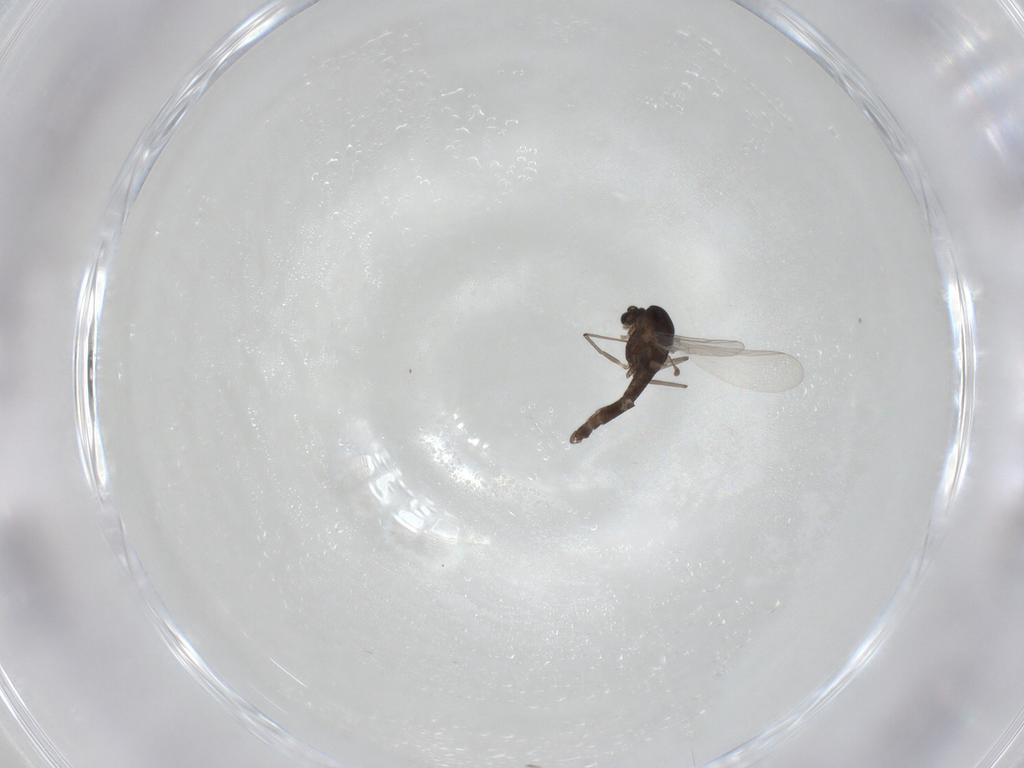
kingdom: Animalia
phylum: Arthropoda
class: Insecta
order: Diptera
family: Chironomidae
